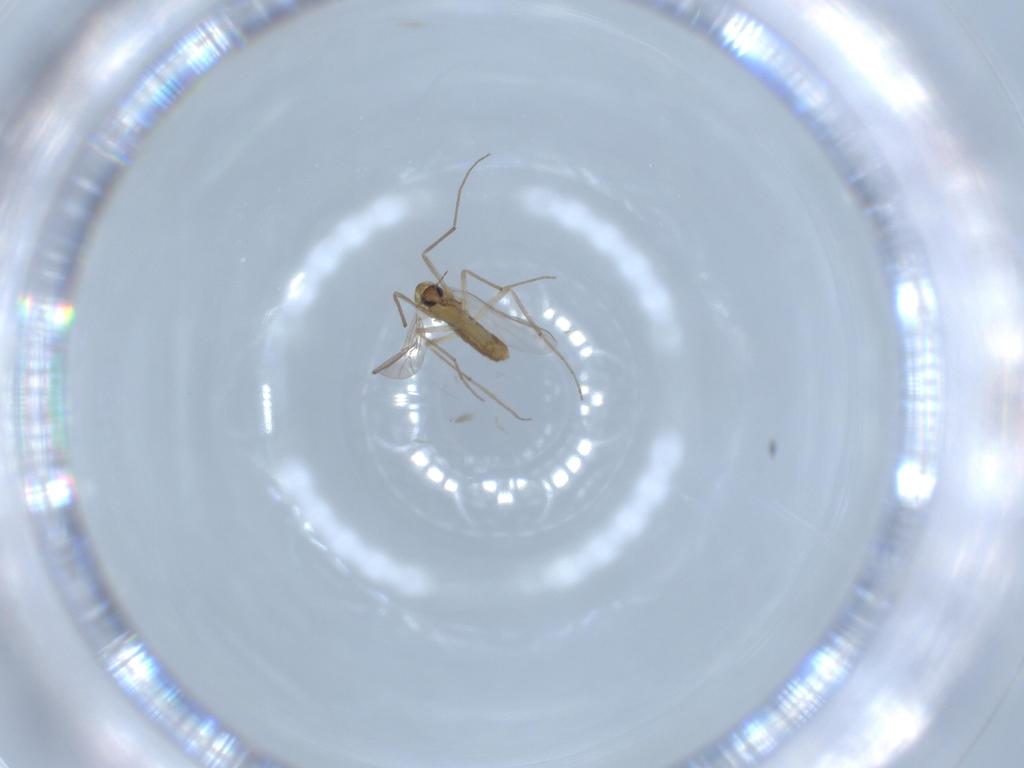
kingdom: Animalia
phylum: Arthropoda
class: Insecta
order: Diptera
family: Chironomidae
